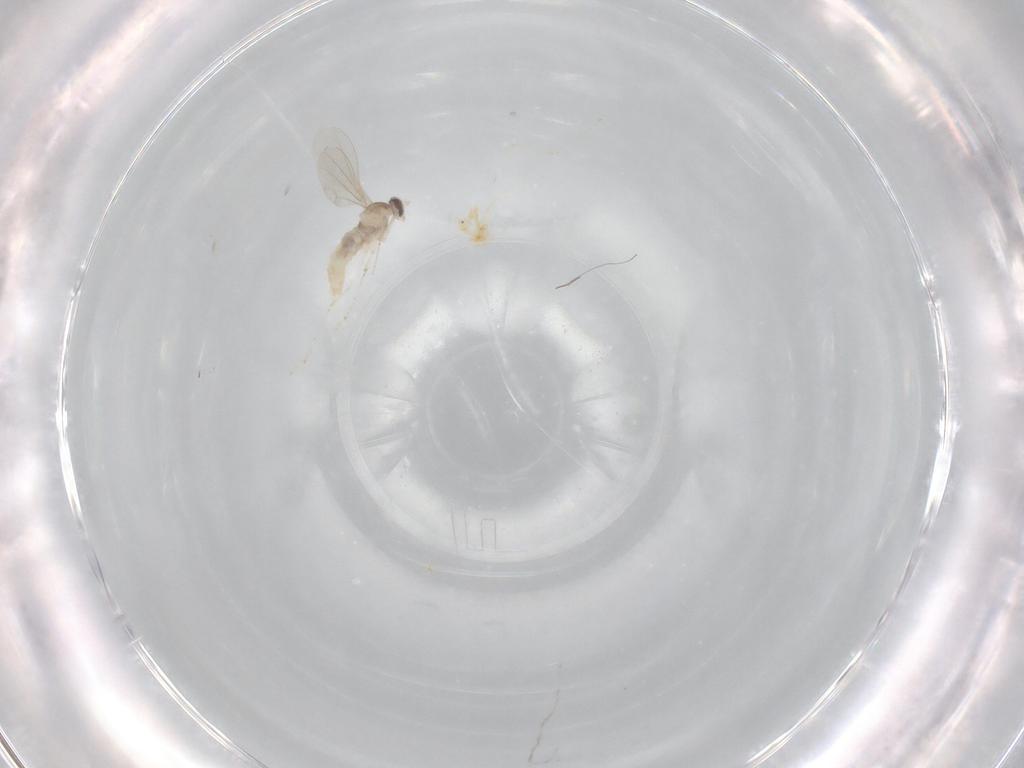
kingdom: Animalia
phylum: Arthropoda
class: Insecta
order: Diptera
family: Cecidomyiidae
